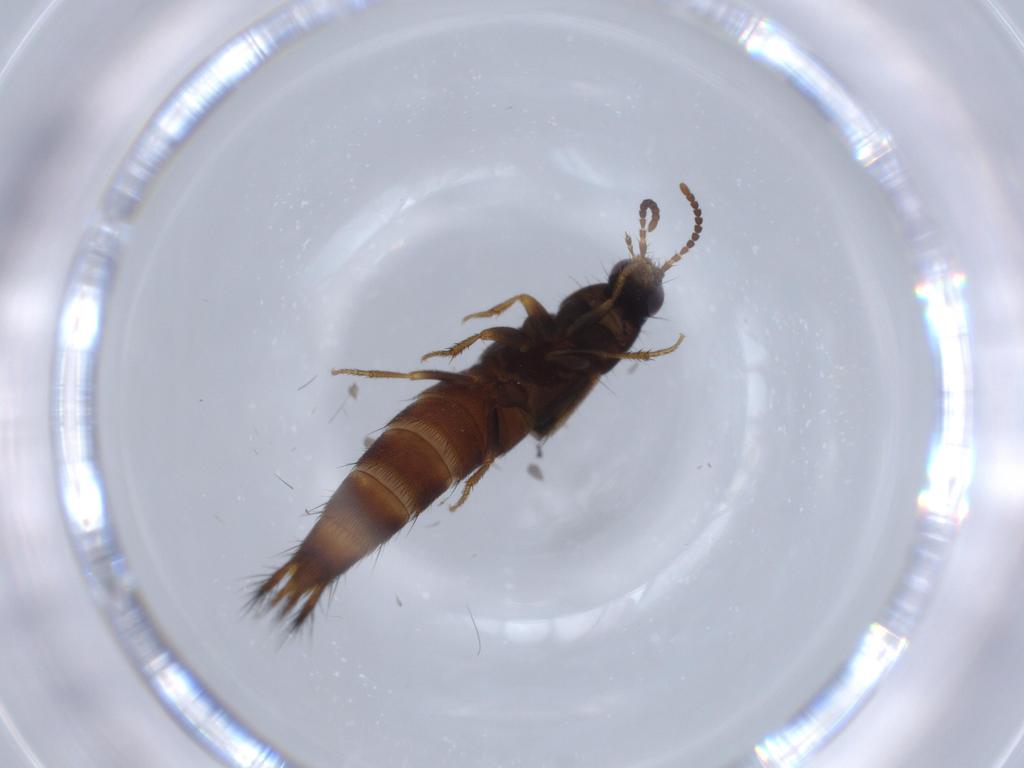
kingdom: Animalia
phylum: Arthropoda
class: Insecta
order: Coleoptera
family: Staphylinidae
